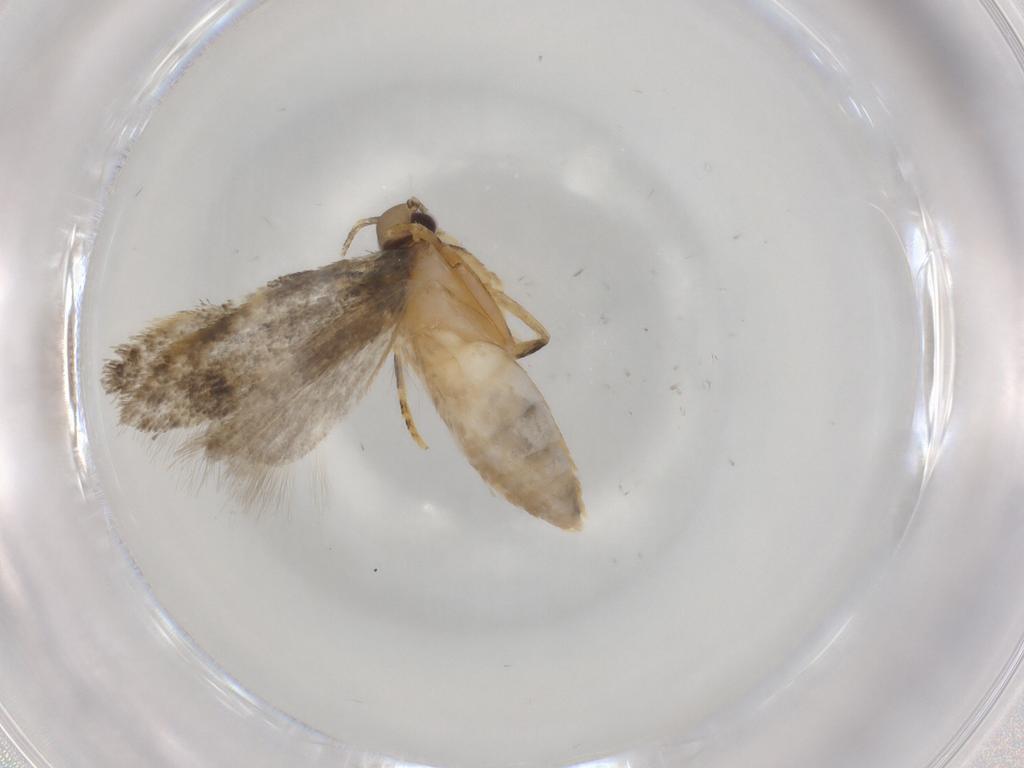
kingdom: Animalia
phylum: Arthropoda
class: Insecta
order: Lepidoptera
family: Autostichidae
